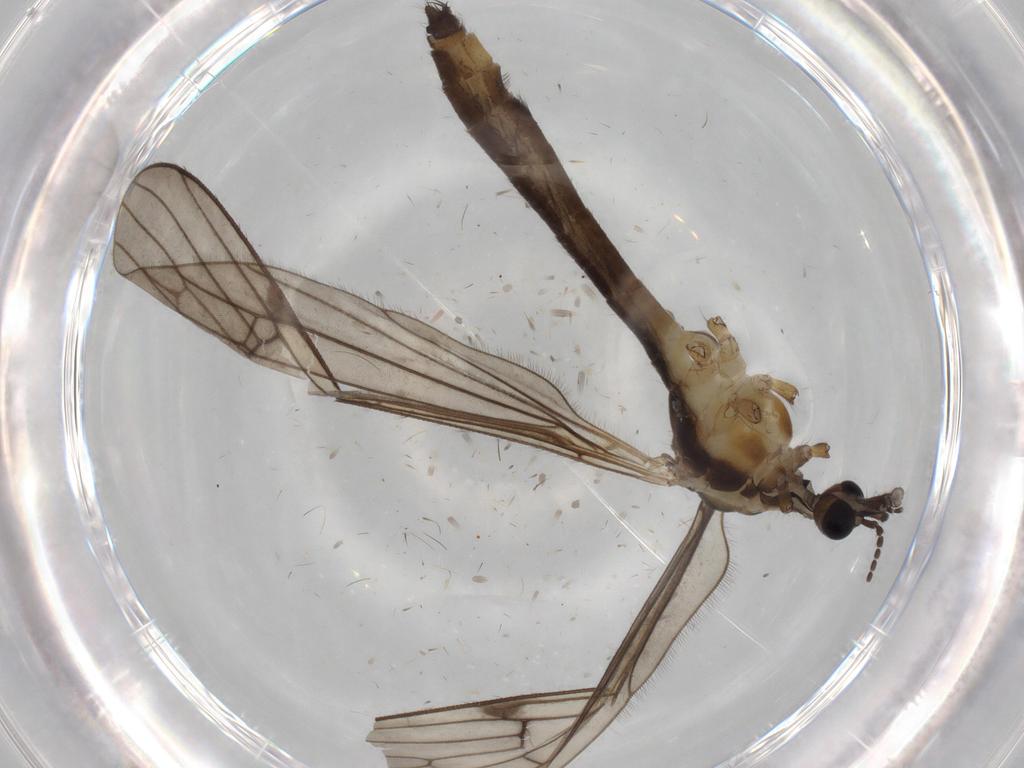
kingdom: Animalia
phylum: Arthropoda
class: Insecta
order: Diptera
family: Limoniidae
